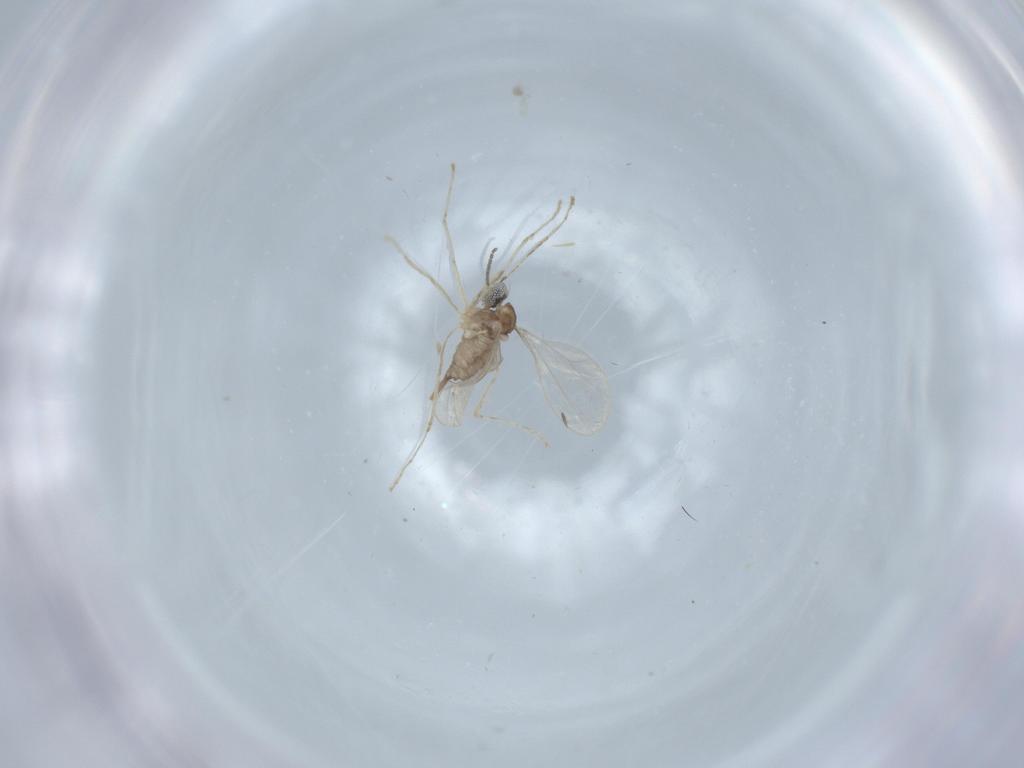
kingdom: Animalia
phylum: Arthropoda
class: Insecta
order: Diptera
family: Cecidomyiidae
